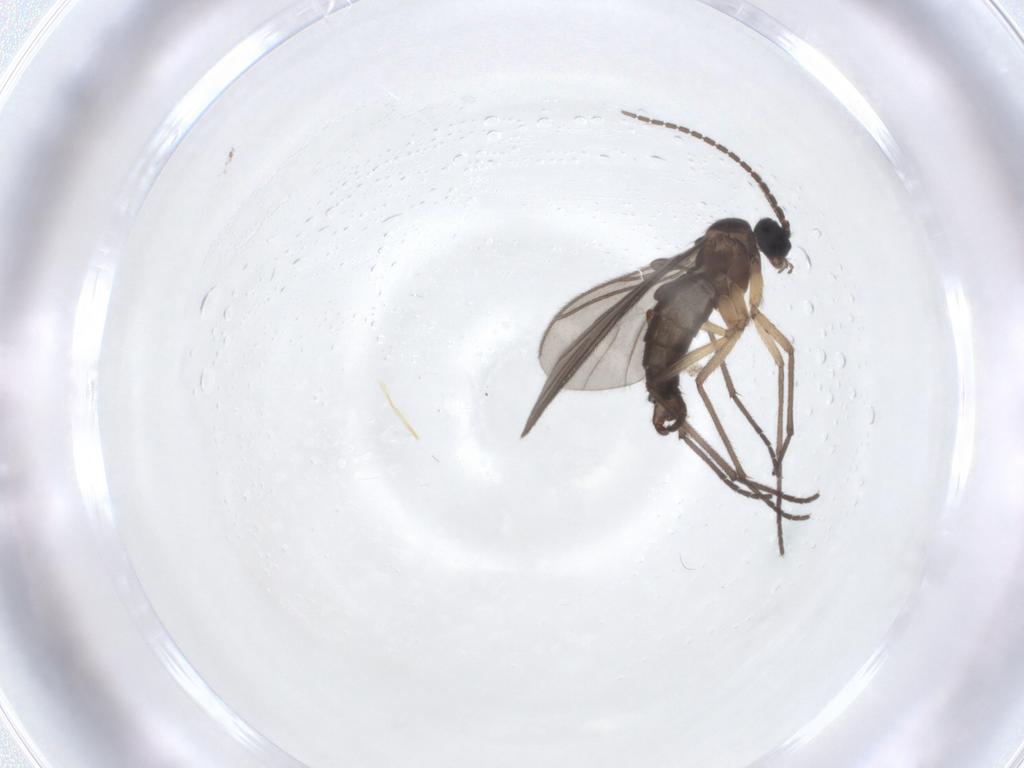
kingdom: Animalia
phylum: Arthropoda
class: Insecta
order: Diptera
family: Sciaridae
